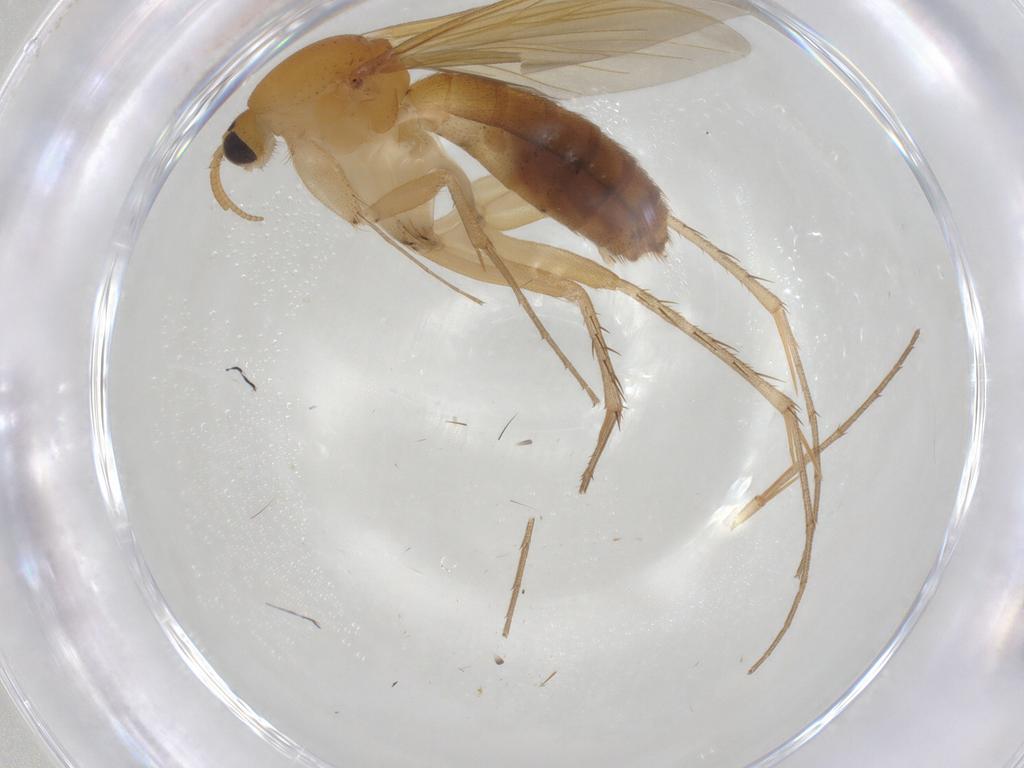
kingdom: Animalia
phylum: Arthropoda
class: Insecta
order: Diptera
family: Mycetophilidae
